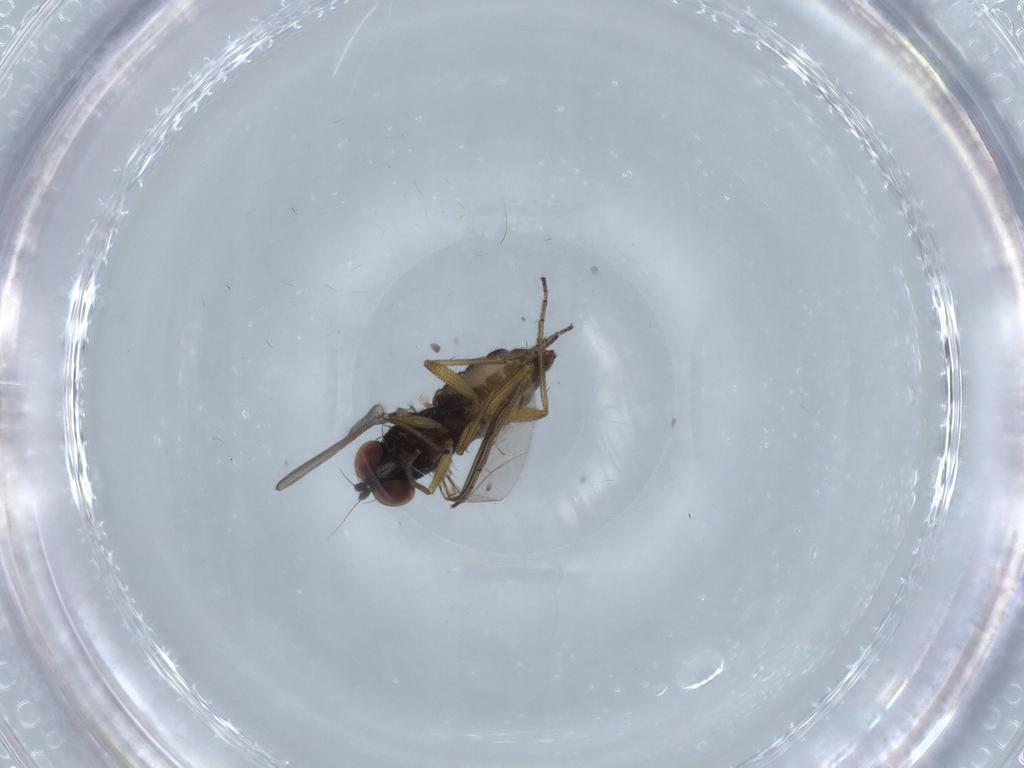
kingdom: Animalia
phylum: Arthropoda
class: Insecta
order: Diptera
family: Dolichopodidae
